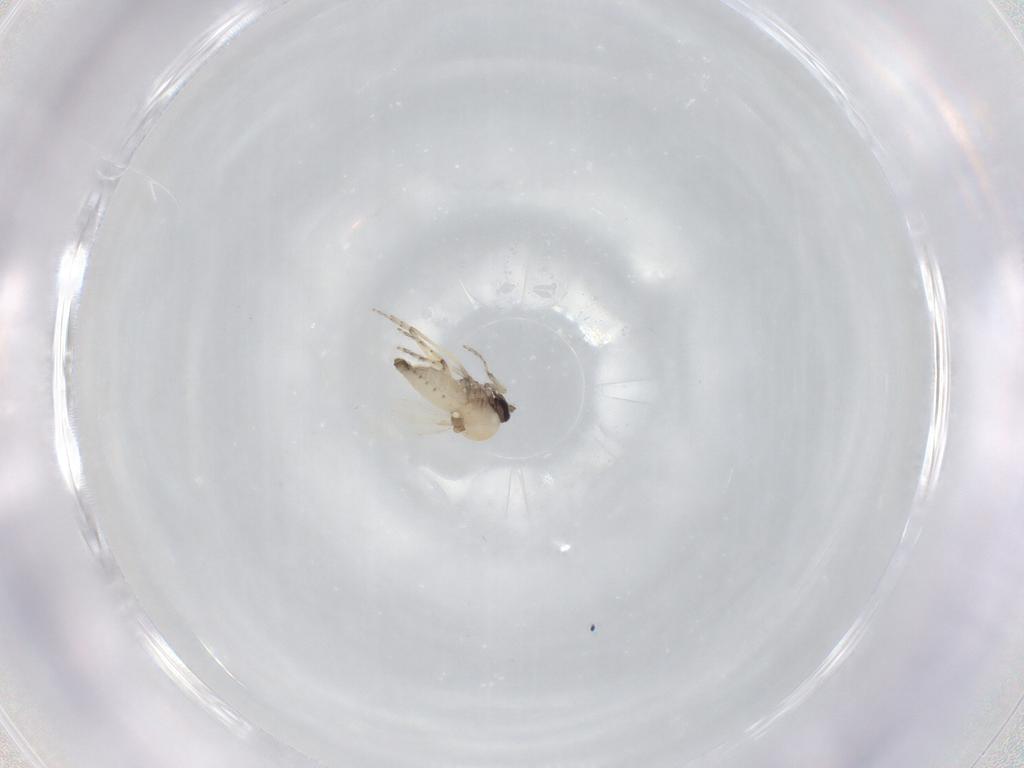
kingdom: Animalia
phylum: Arthropoda
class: Insecta
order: Diptera
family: Ceratopogonidae
